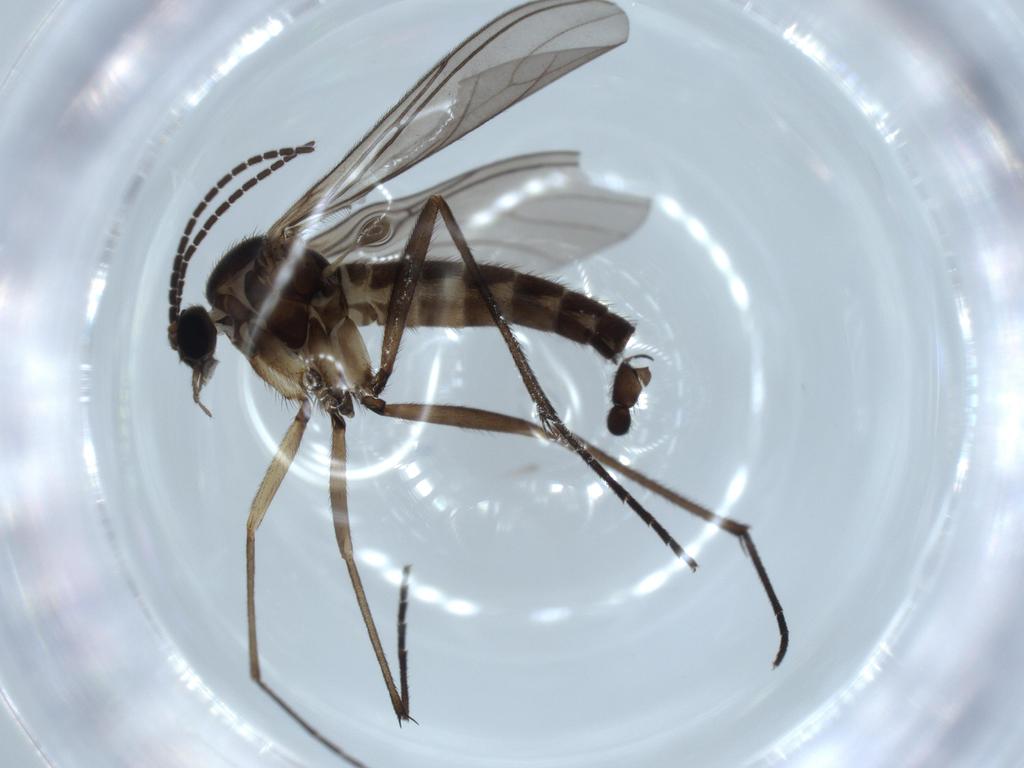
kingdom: Animalia
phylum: Arthropoda
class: Insecta
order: Diptera
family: Sciaridae
